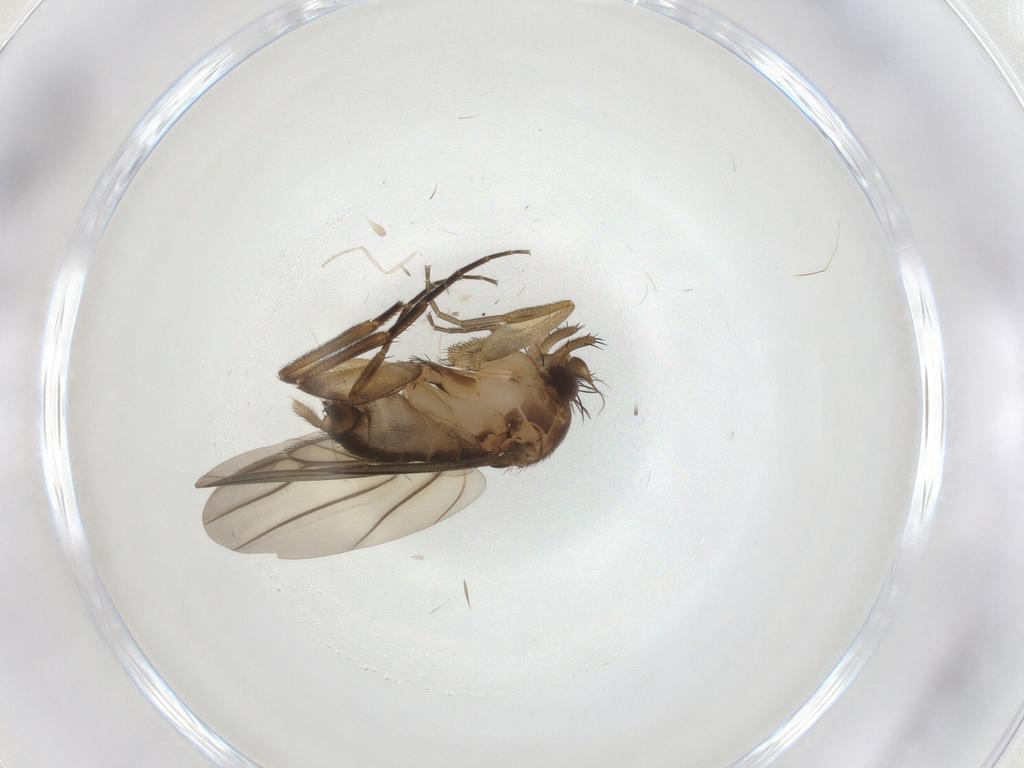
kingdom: Animalia
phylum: Arthropoda
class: Insecta
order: Diptera
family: Phoridae
